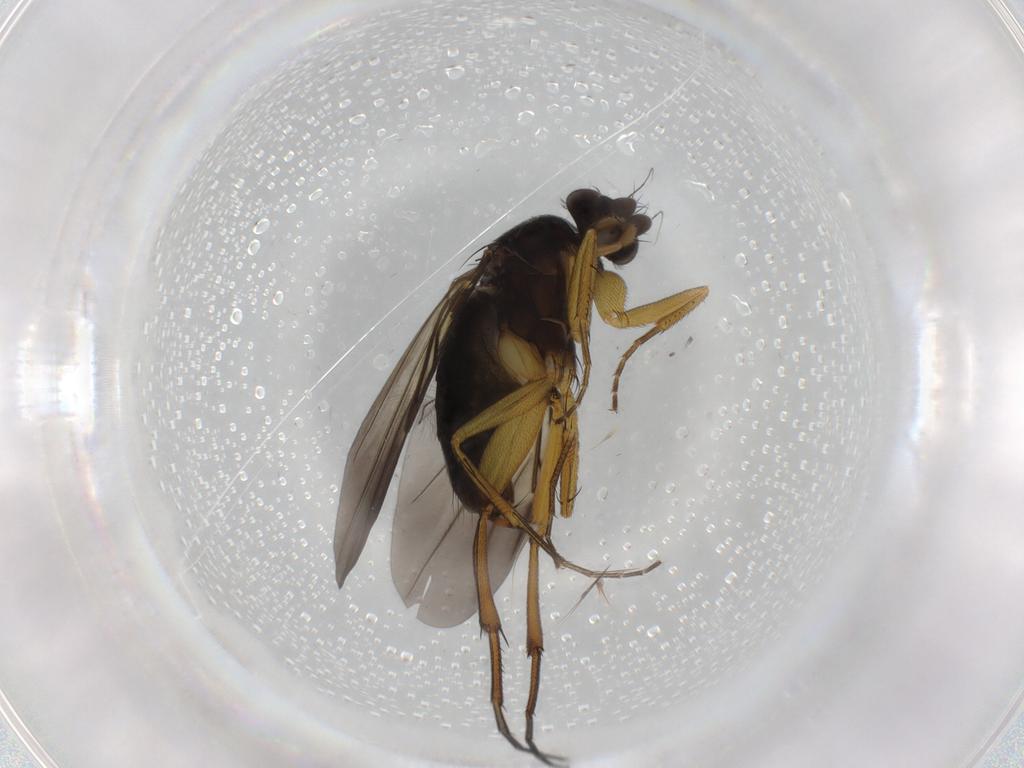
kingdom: Animalia
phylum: Arthropoda
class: Insecta
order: Diptera
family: Phoridae
